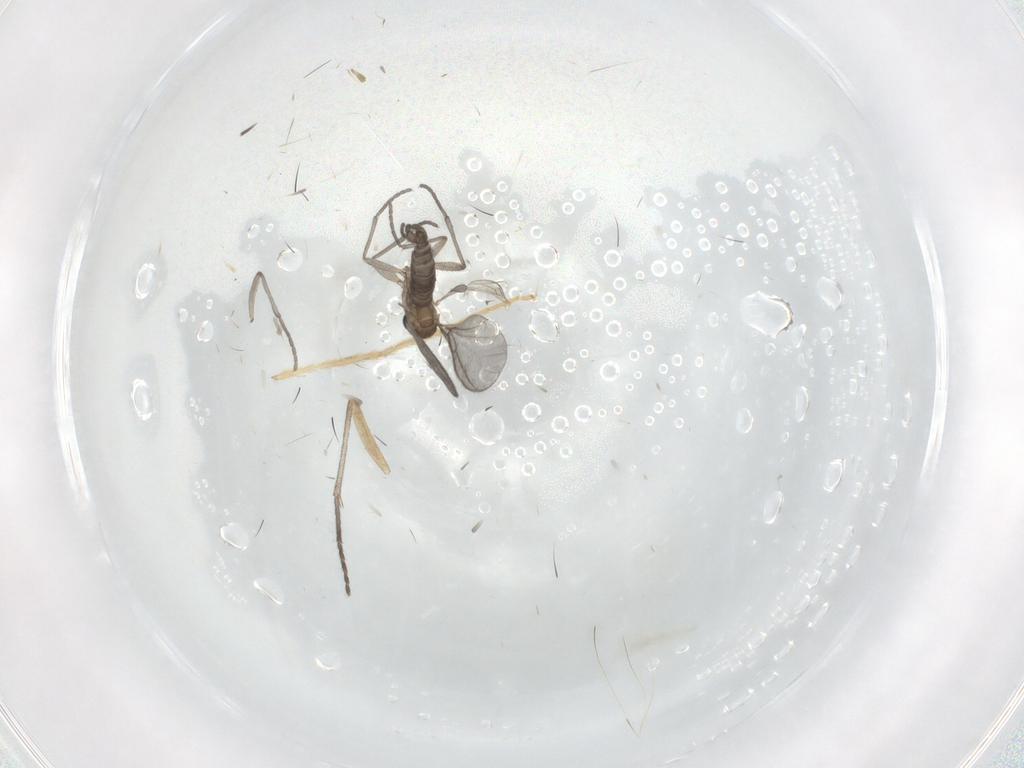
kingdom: Animalia
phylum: Arthropoda
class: Insecta
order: Diptera
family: Sciaridae
